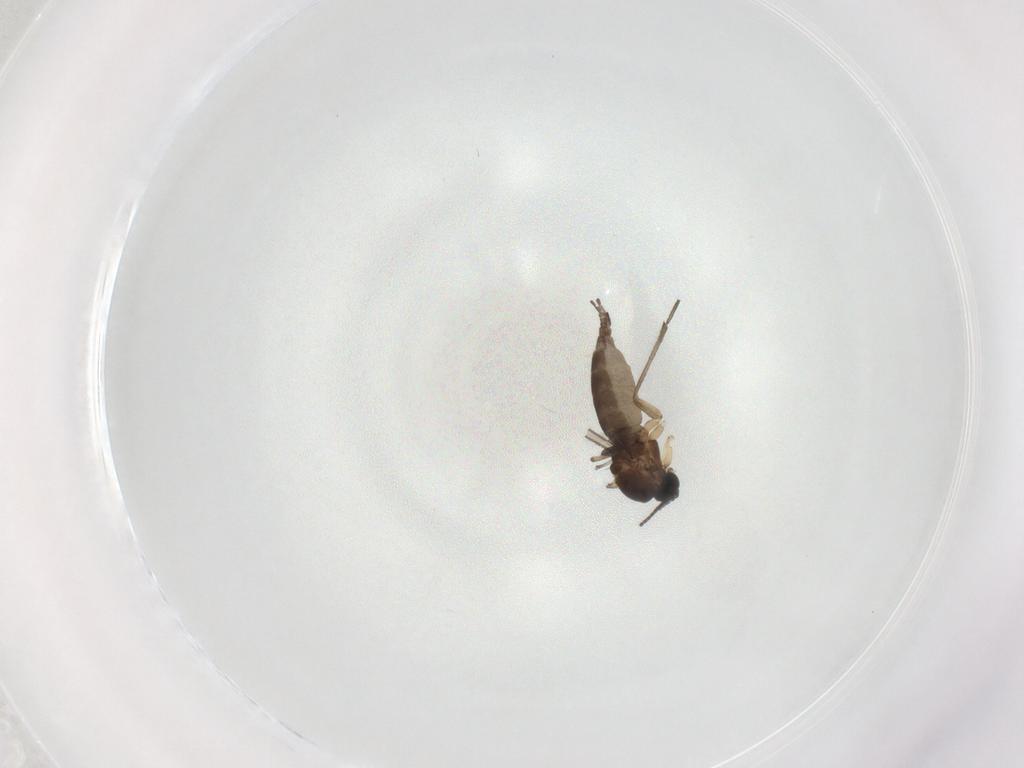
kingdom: Animalia
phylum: Arthropoda
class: Insecta
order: Diptera
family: Sciaridae
